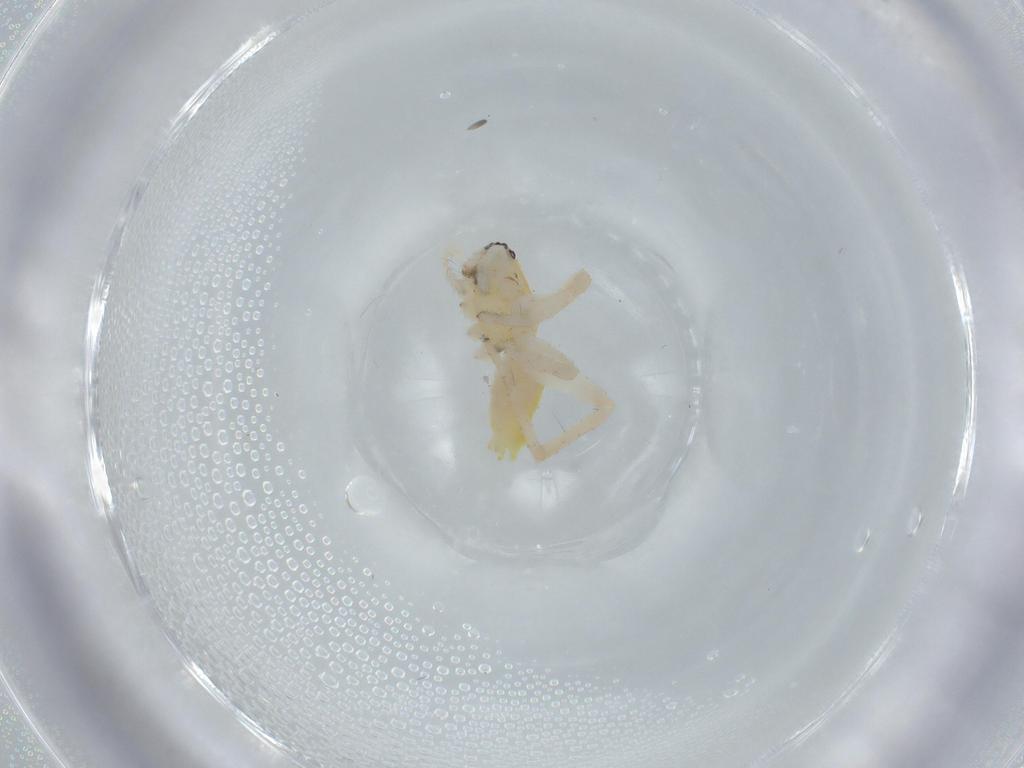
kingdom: Animalia
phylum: Arthropoda
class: Arachnida
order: Araneae
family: Anyphaenidae
